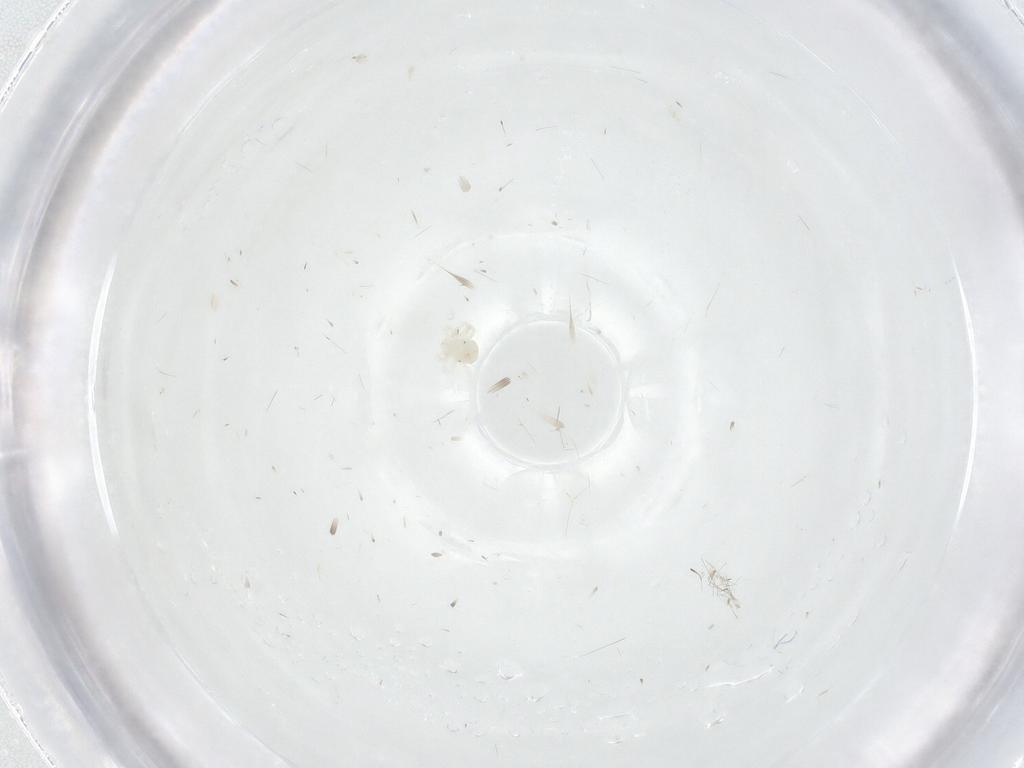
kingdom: Animalia
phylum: Arthropoda
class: Arachnida
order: Trombidiformes
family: Anystidae
